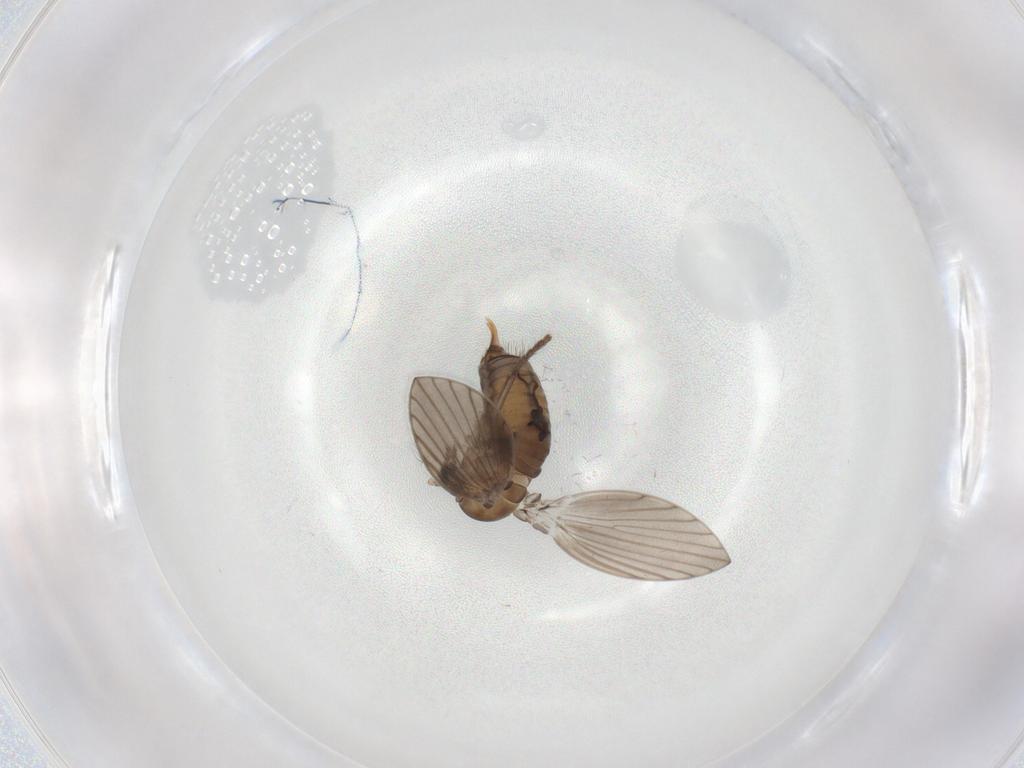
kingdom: Animalia
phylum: Arthropoda
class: Insecta
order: Diptera
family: Psychodidae
